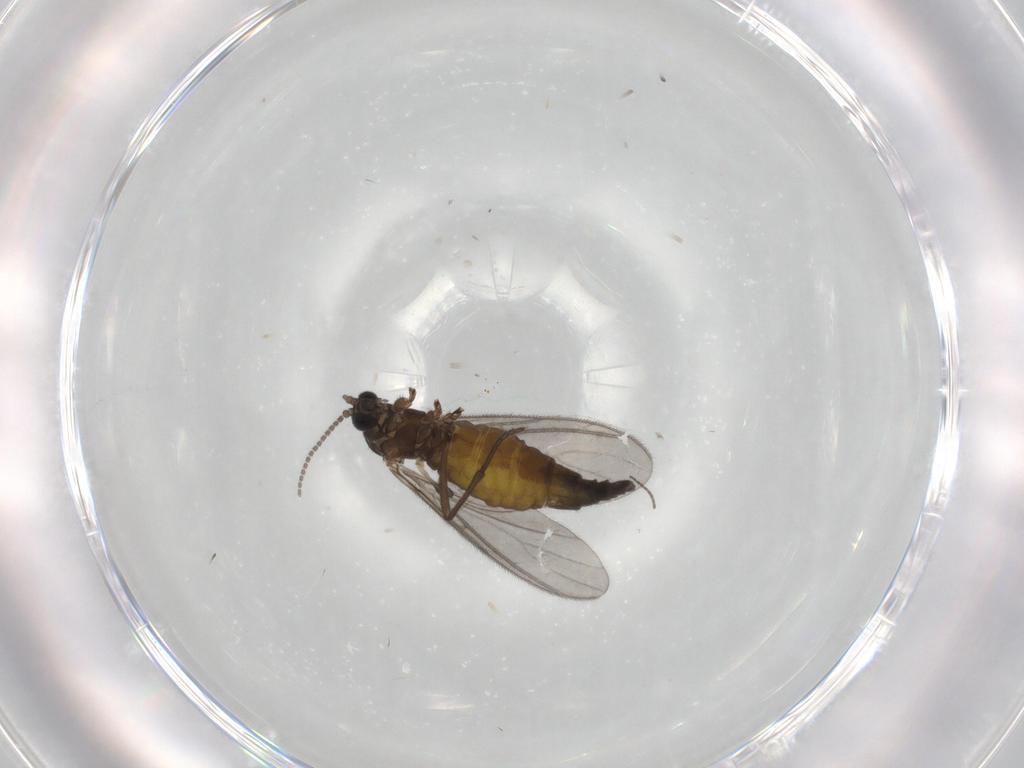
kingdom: Animalia
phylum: Arthropoda
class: Insecta
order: Diptera
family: Sciaridae
